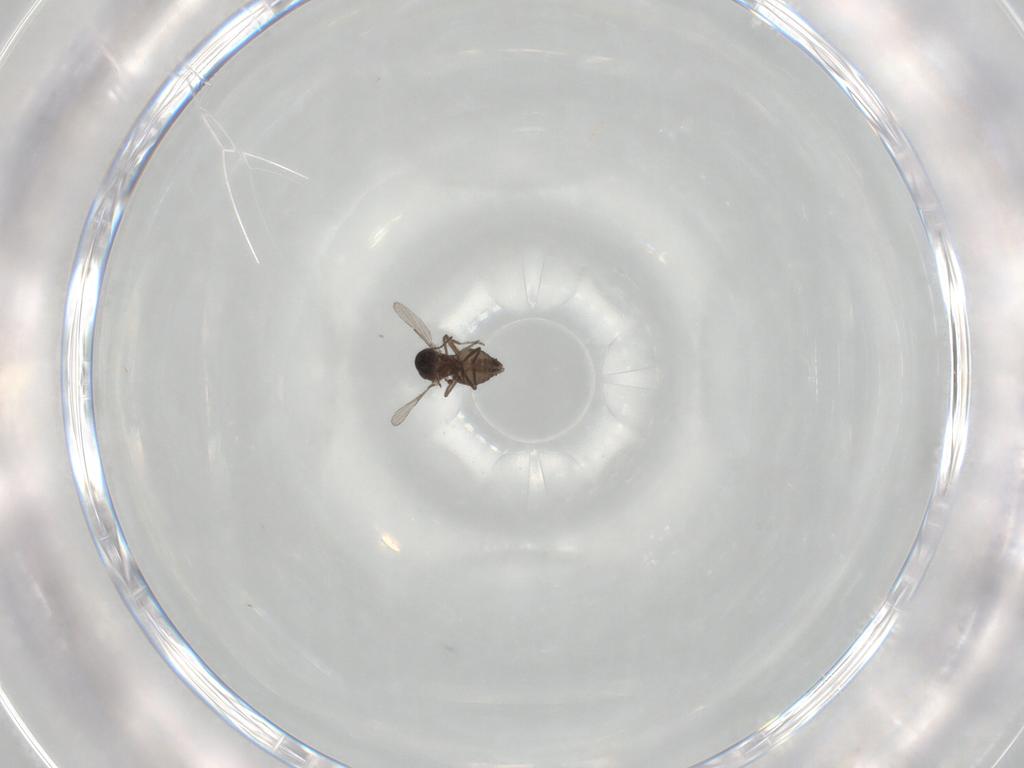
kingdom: Animalia
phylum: Arthropoda
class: Insecta
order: Diptera
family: Ceratopogonidae
